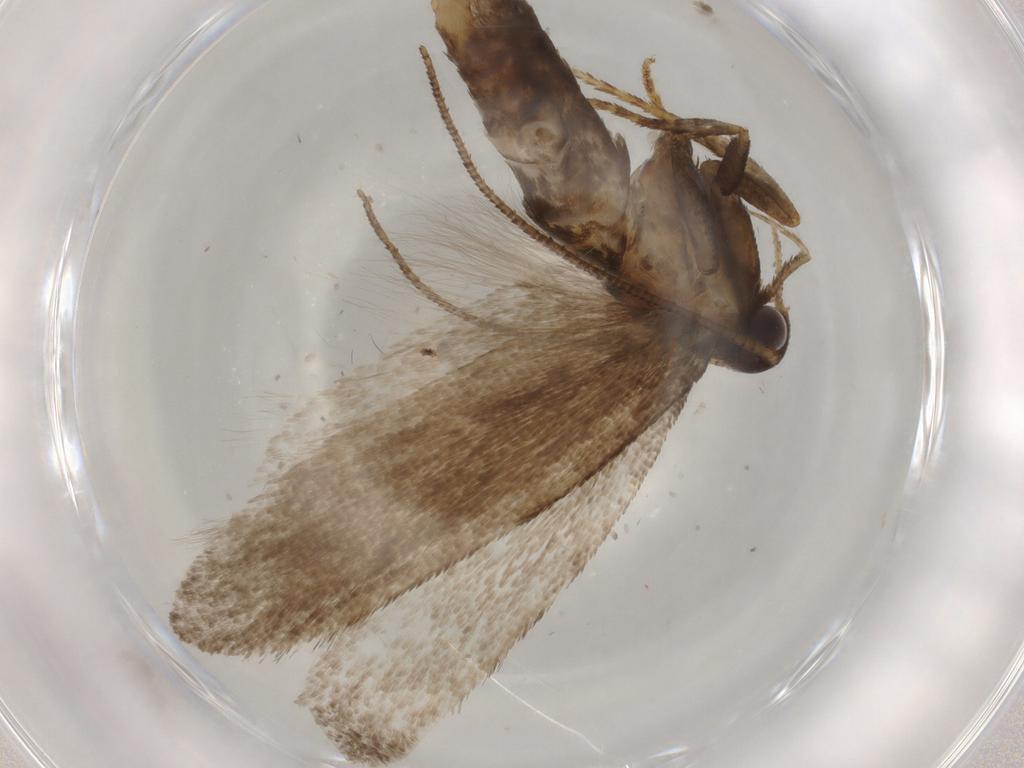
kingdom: Animalia
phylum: Arthropoda
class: Insecta
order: Lepidoptera
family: Gelechiidae
